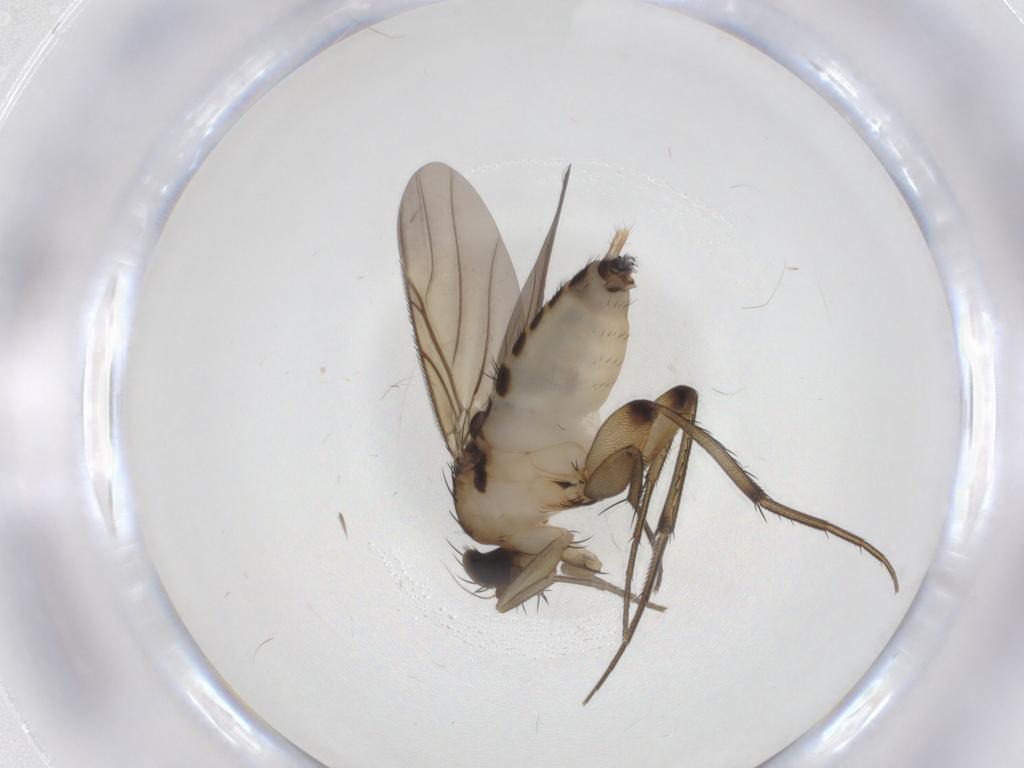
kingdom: Animalia
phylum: Arthropoda
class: Insecta
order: Diptera
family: Phoridae
